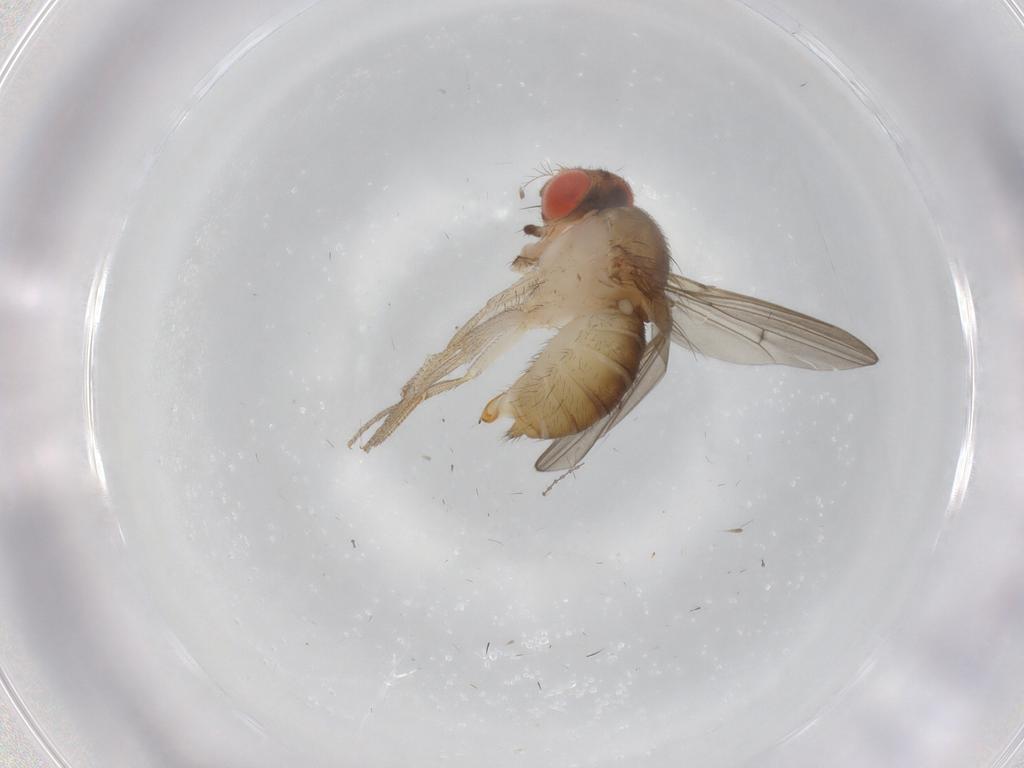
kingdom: Animalia
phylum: Arthropoda
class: Insecta
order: Diptera
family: Drosophilidae
